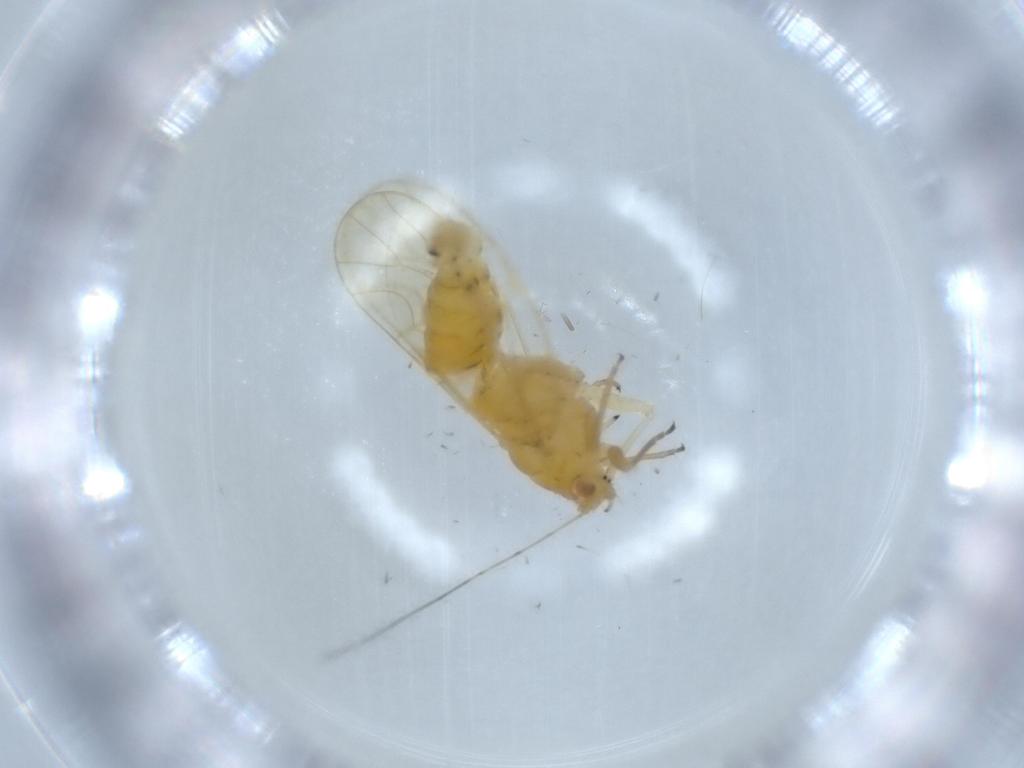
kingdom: Animalia
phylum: Arthropoda
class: Insecta
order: Hemiptera
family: Psyllidae
